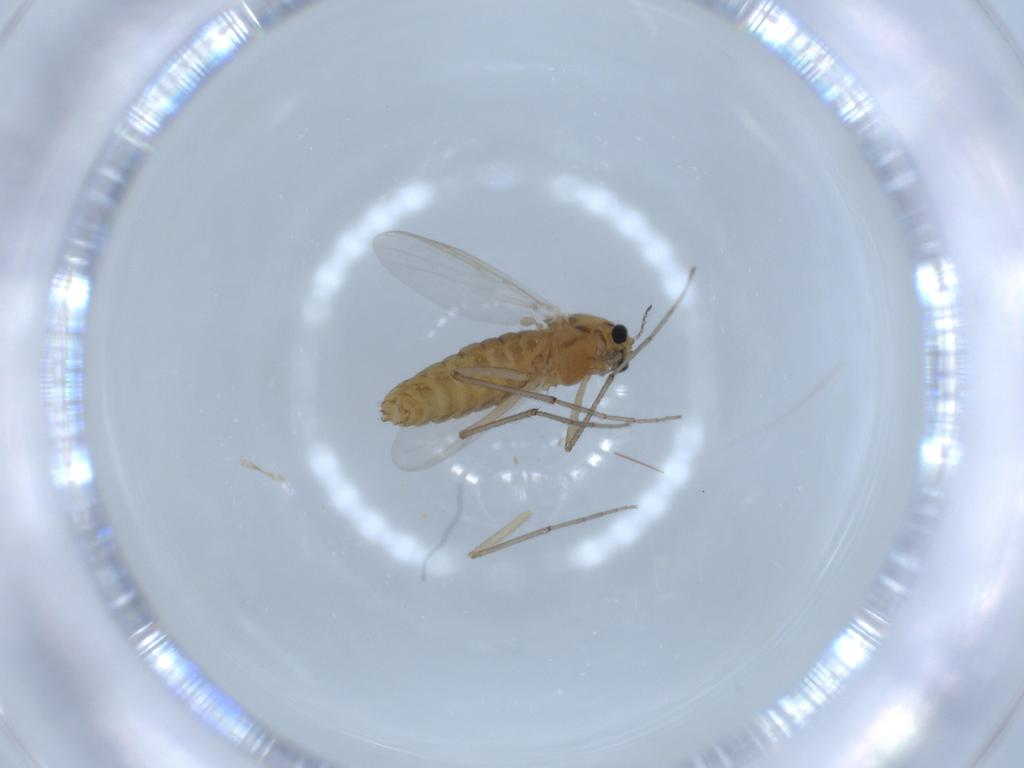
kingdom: Animalia
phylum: Arthropoda
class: Insecta
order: Diptera
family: Chironomidae
